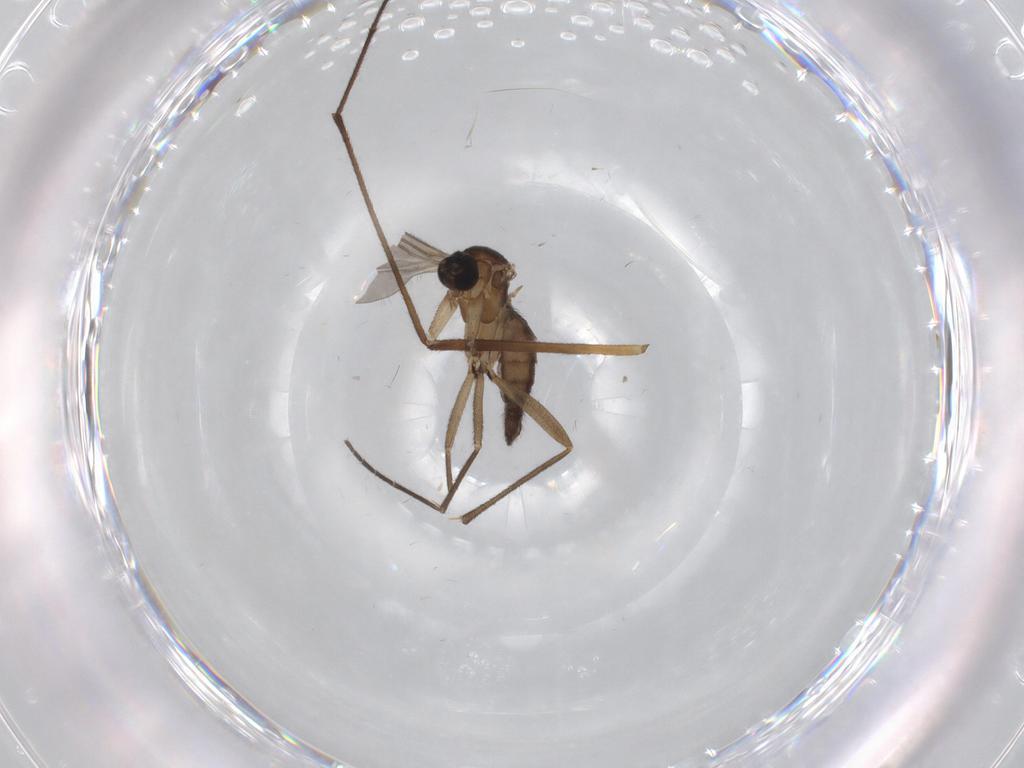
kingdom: Animalia
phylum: Arthropoda
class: Insecta
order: Diptera
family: Limoniidae
